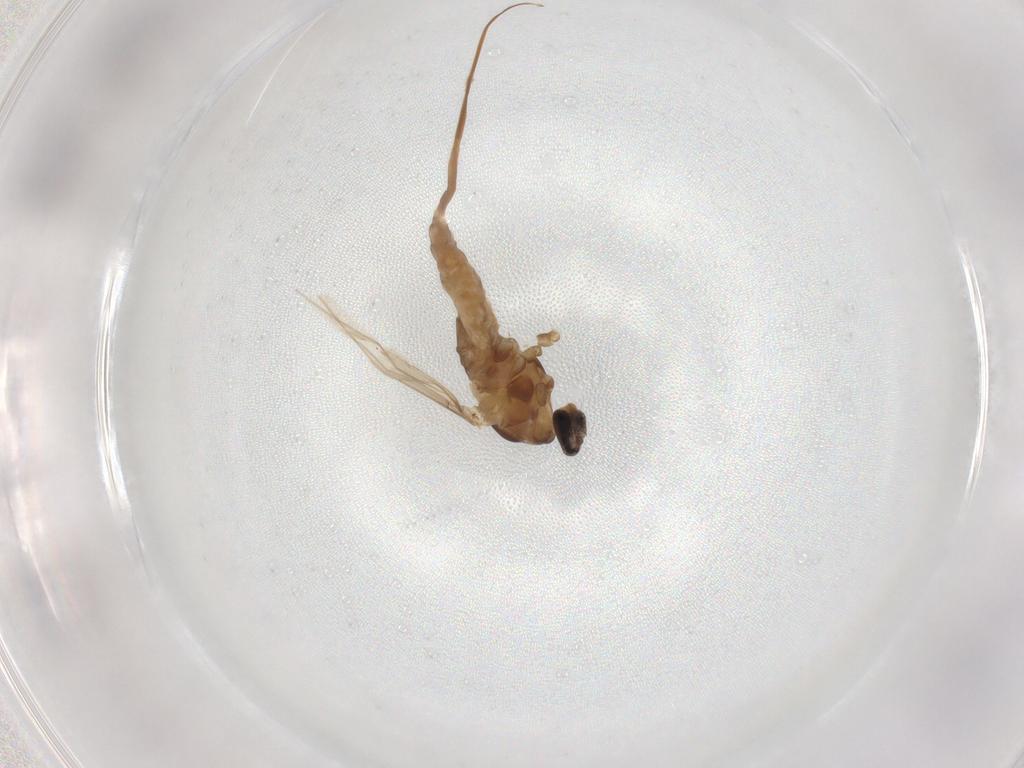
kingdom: Animalia
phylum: Arthropoda
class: Insecta
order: Diptera
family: Cecidomyiidae
